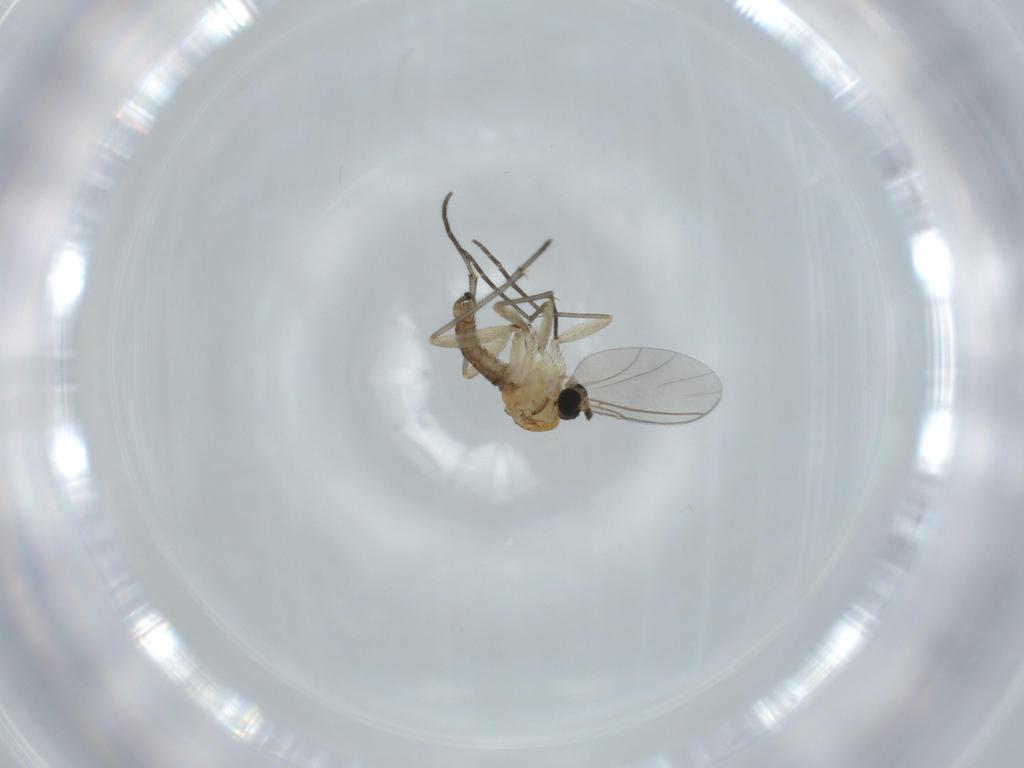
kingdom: Animalia
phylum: Arthropoda
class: Insecta
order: Diptera
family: Sciaridae
